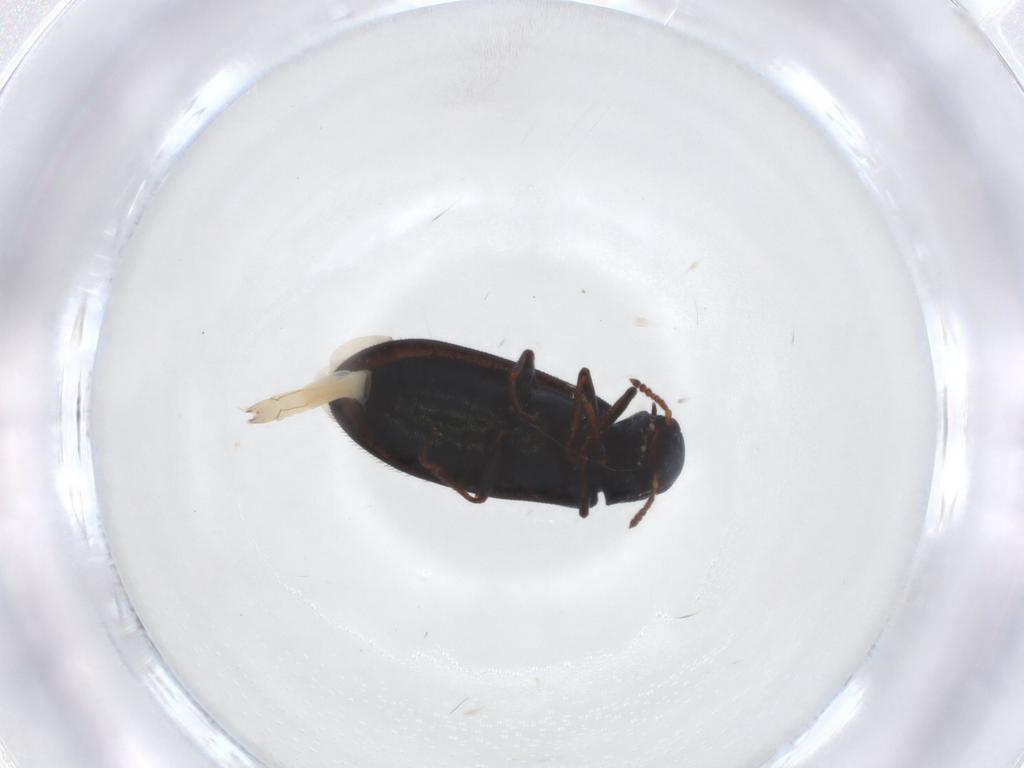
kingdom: Animalia
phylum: Arthropoda
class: Insecta
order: Coleoptera
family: Melyridae
